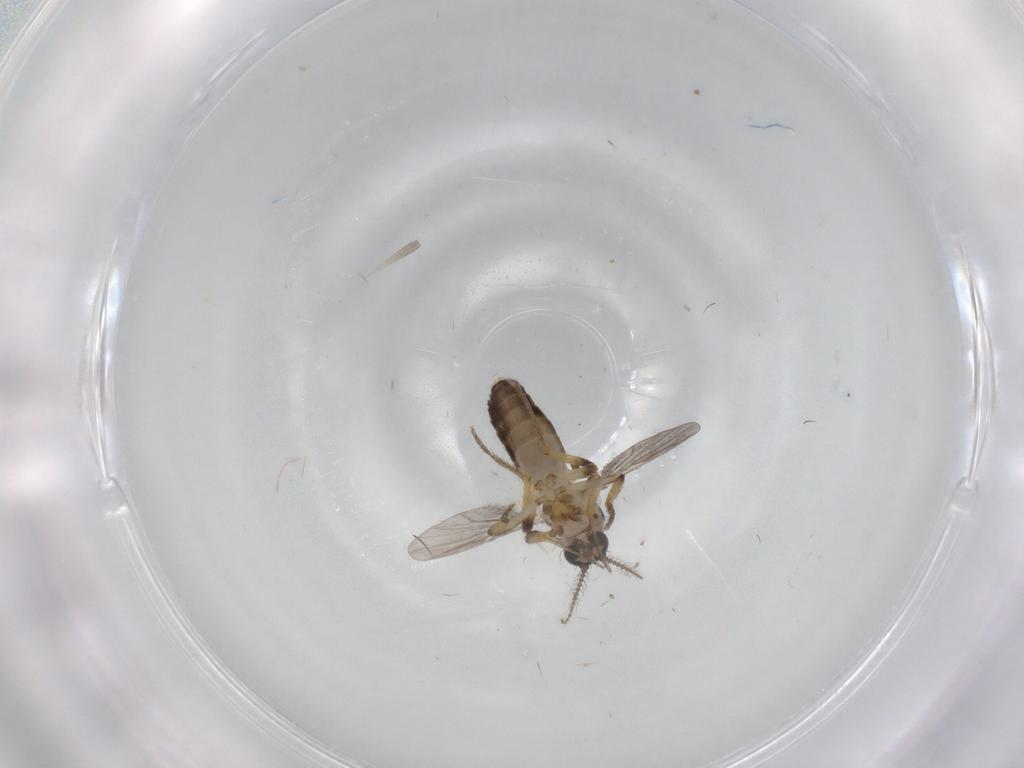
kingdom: Animalia
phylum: Arthropoda
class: Insecta
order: Diptera
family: Cecidomyiidae
